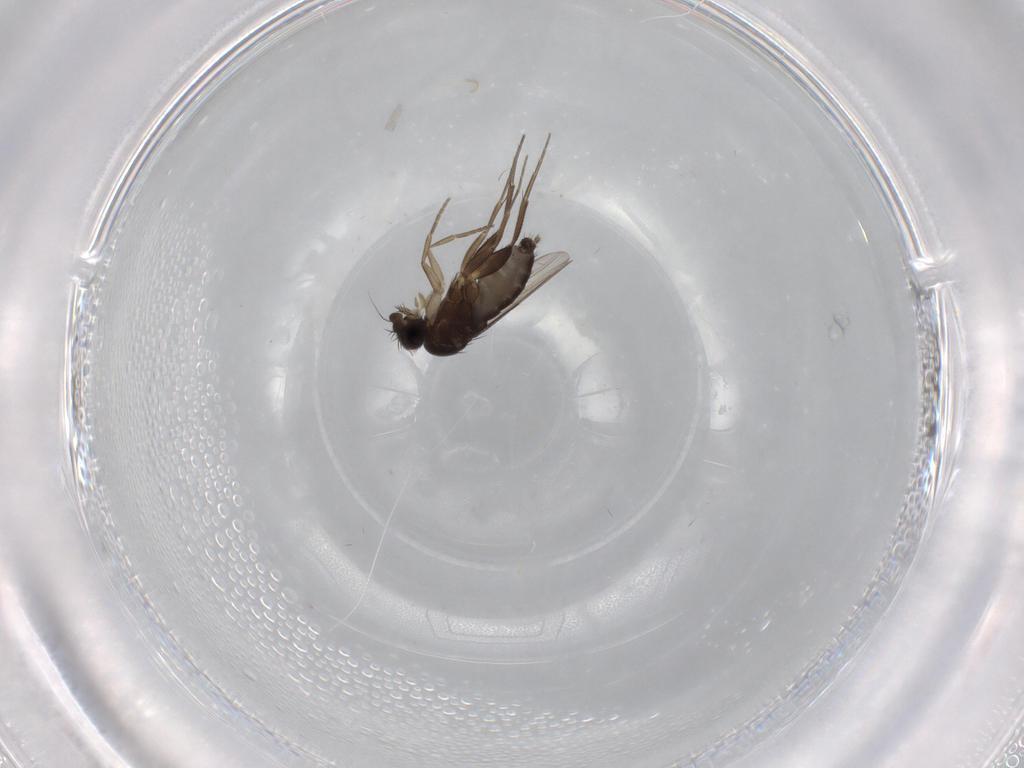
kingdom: Animalia
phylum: Arthropoda
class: Insecta
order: Diptera
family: Phoridae
